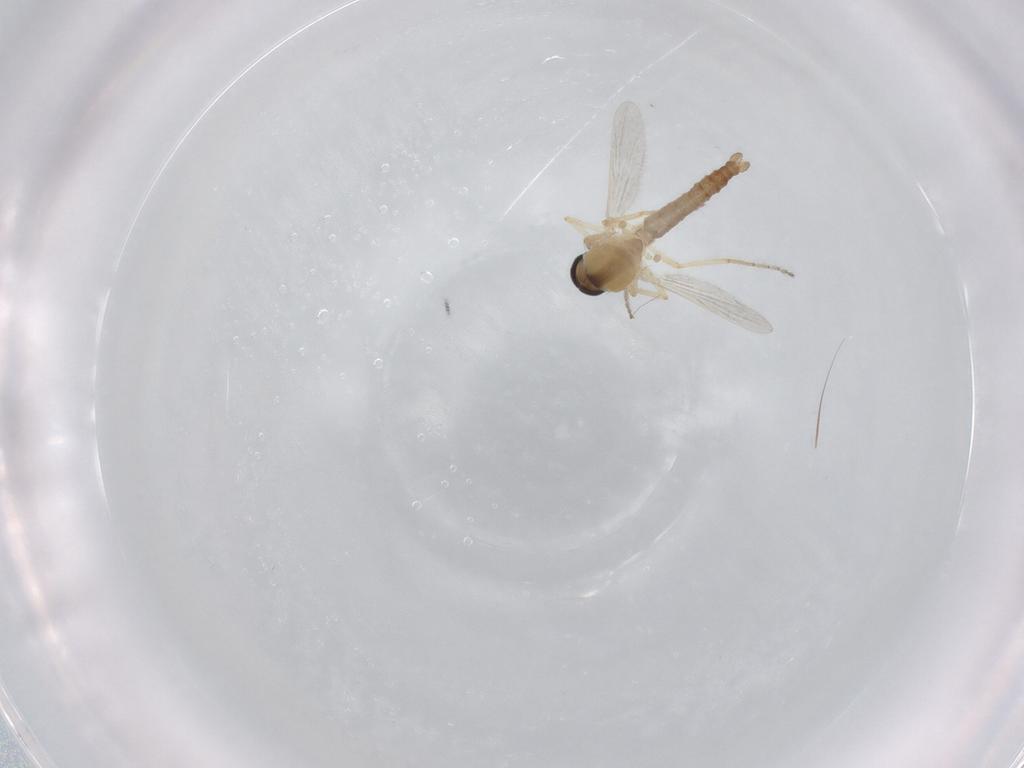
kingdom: Animalia
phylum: Arthropoda
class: Insecta
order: Diptera
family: Ceratopogonidae
